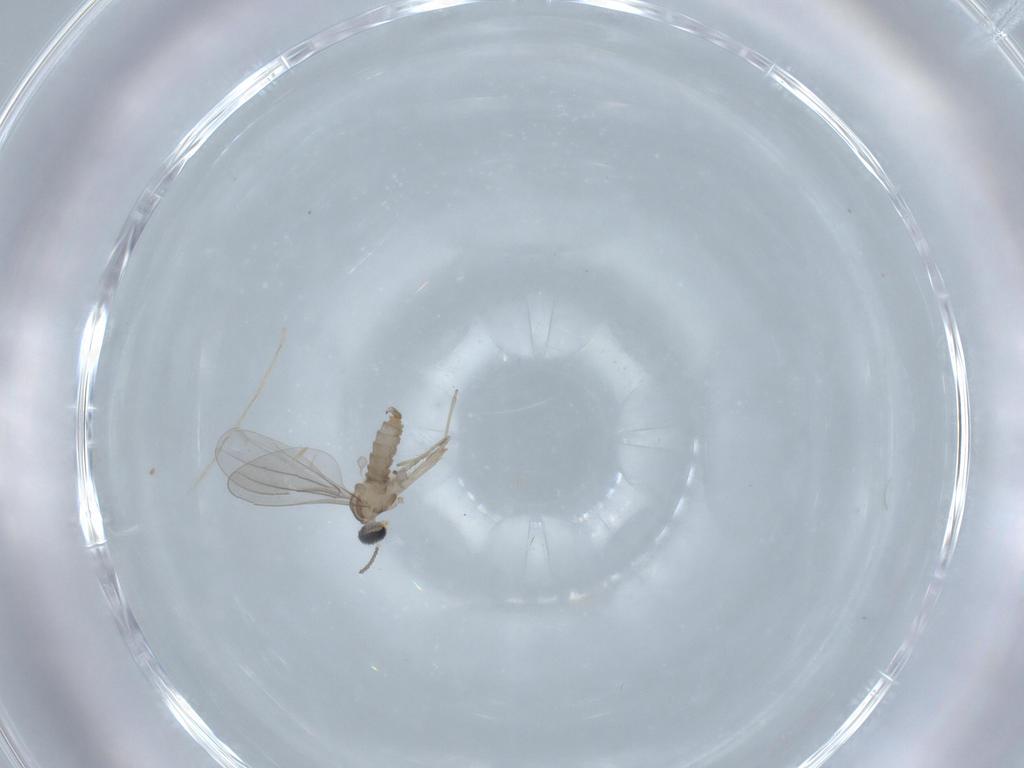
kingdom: Animalia
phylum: Arthropoda
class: Insecta
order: Diptera
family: Cecidomyiidae
